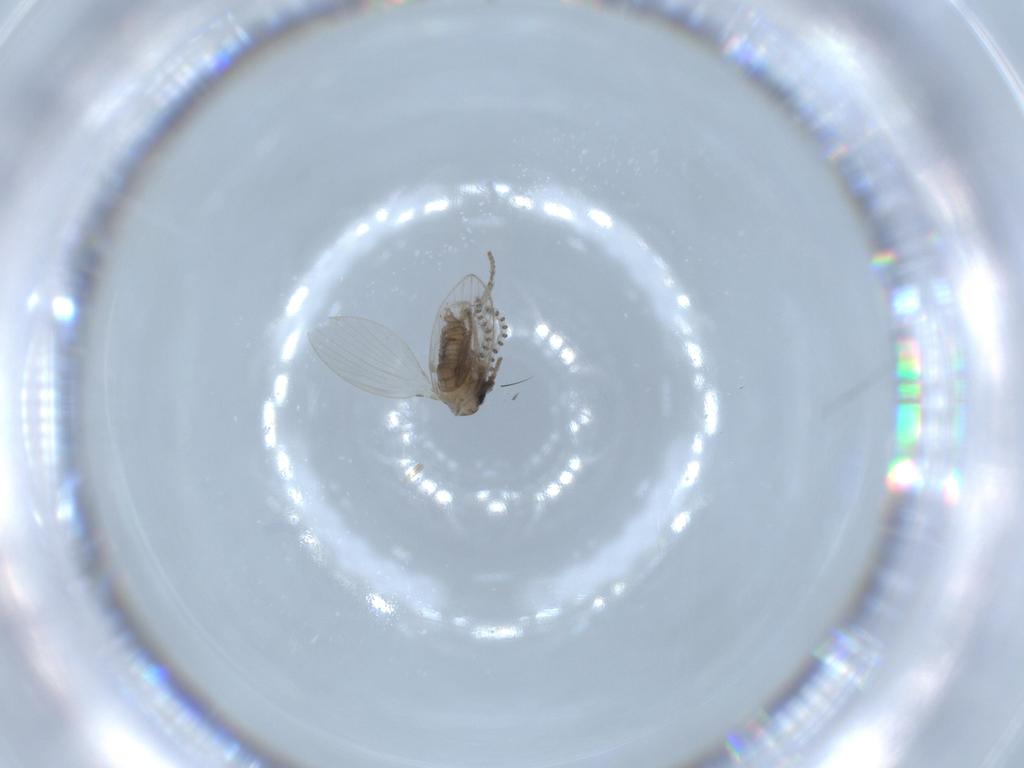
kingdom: Animalia
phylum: Arthropoda
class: Insecta
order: Diptera
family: Psychodidae
